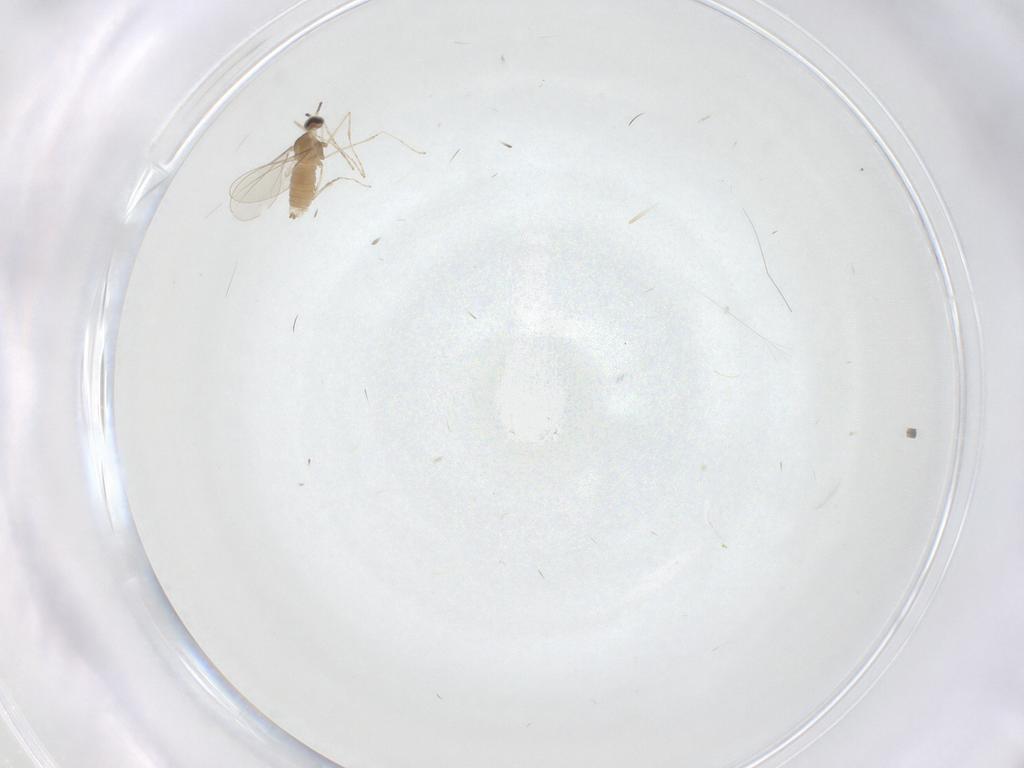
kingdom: Animalia
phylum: Arthropoda
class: Insecta
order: Diptera
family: Cecidomyiidae
